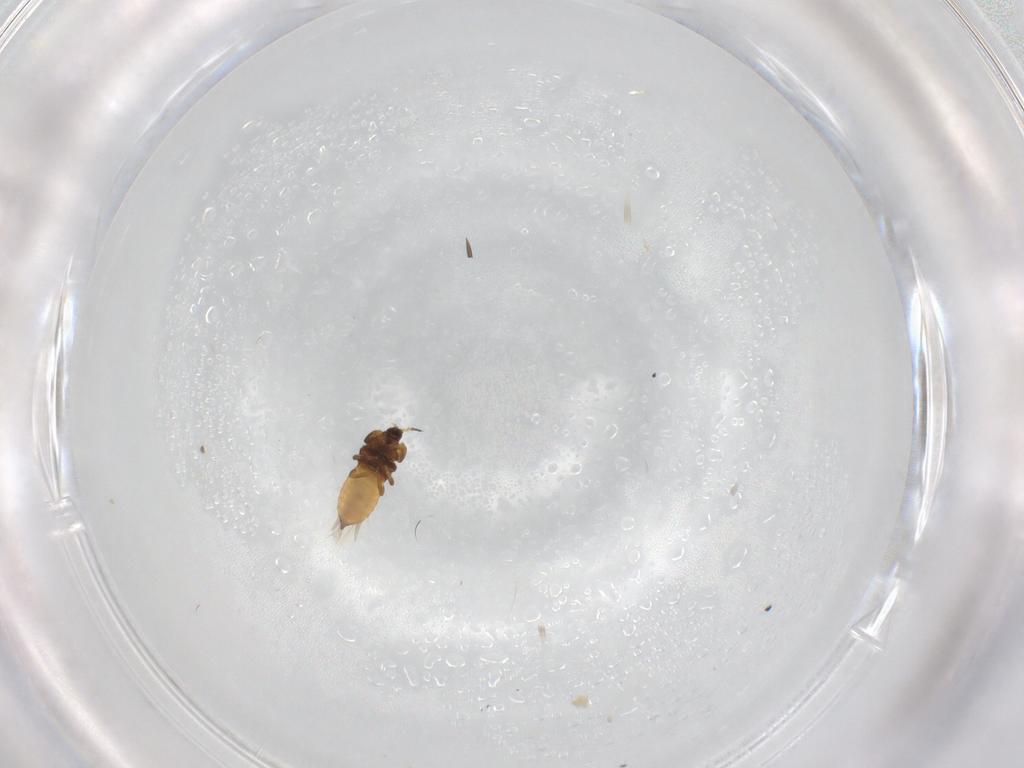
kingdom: Animalia
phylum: Arthropoda
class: Insecta
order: Thysanoptera
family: Thripidae
